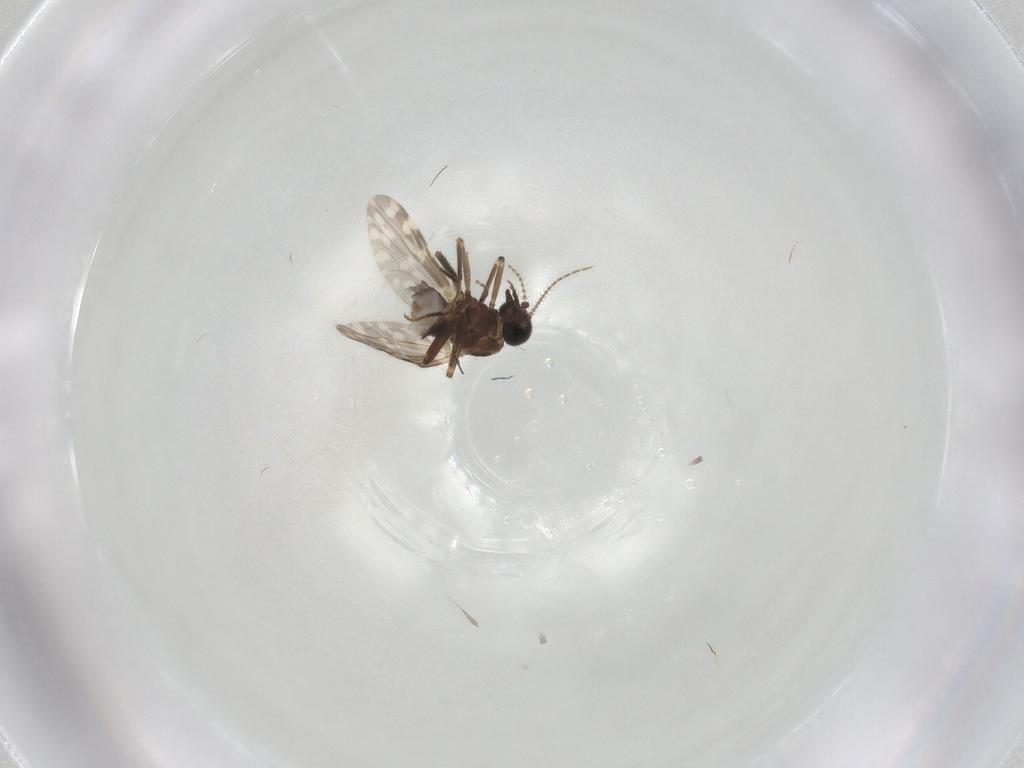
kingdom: Animalia
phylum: Arthropoda
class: Insecta
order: Diptera
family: Ceratopogonidae
